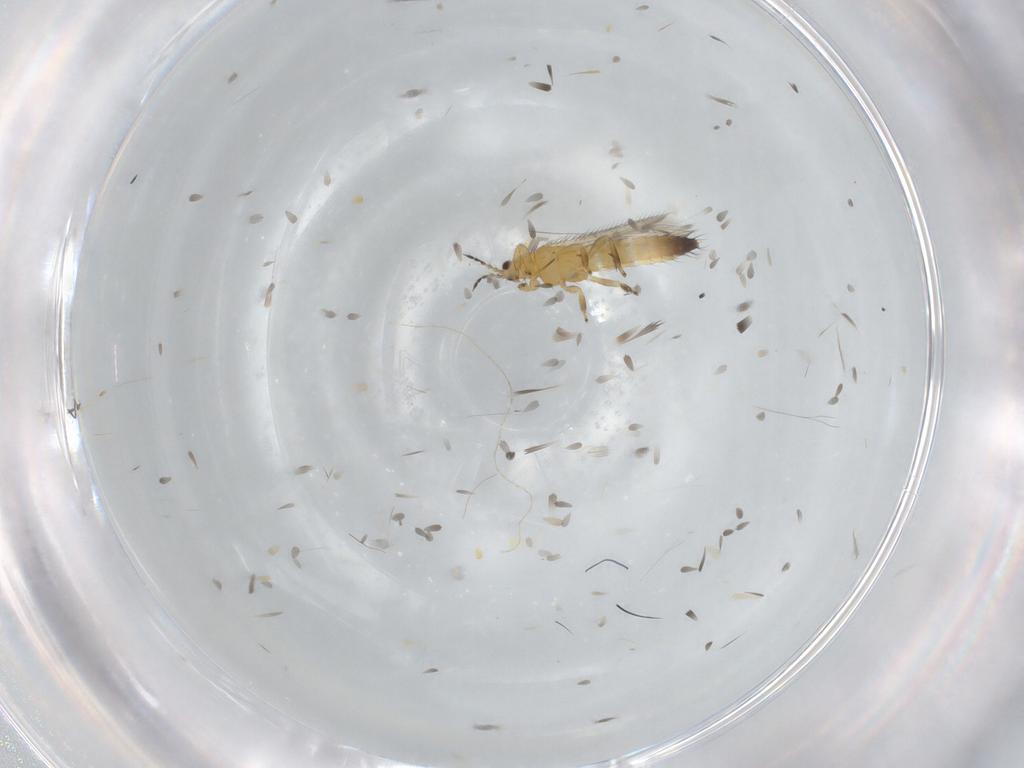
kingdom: Animalia
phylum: Arthropoda
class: Insecta
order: Thysanoptera
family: Thripidae
